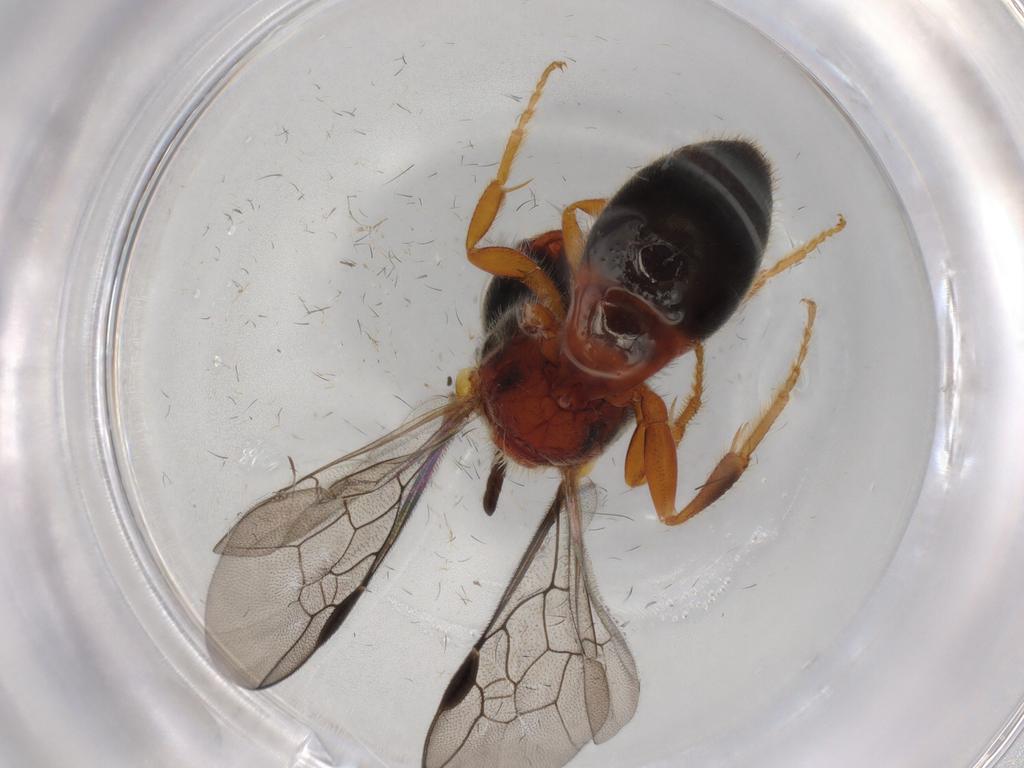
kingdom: Animalia
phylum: Arthropoda
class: Insecta
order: Hymenoptera
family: Halictidae
